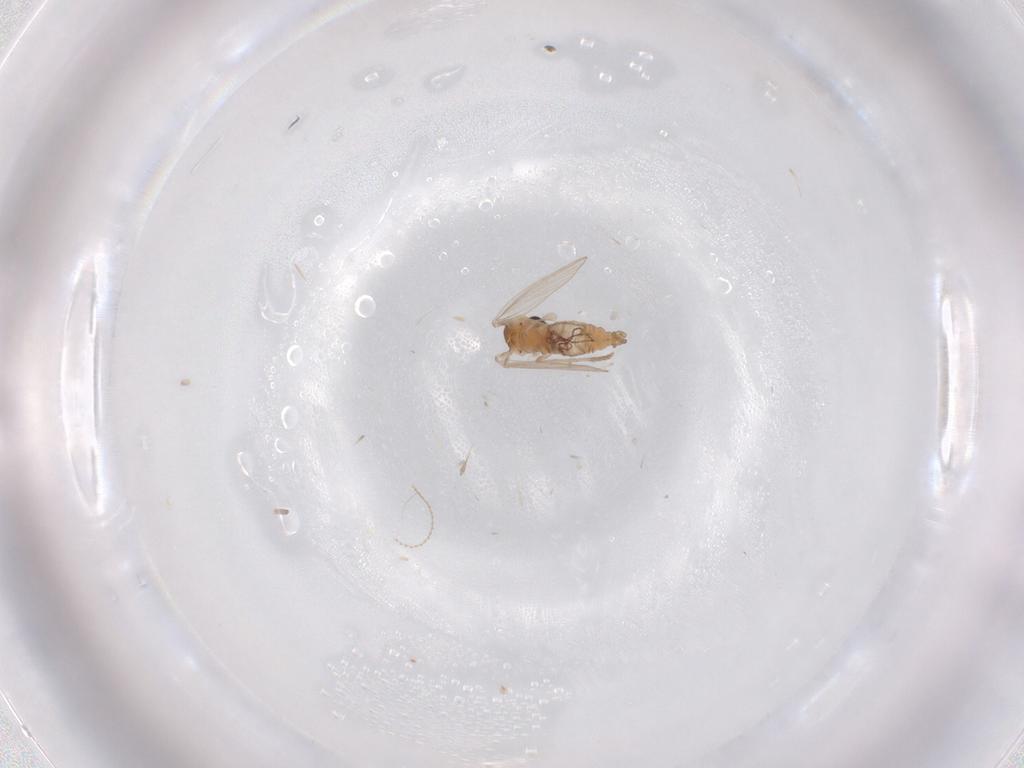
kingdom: Animalia
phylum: Arthropoda
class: Insecta
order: Diptera
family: Psychodidae
